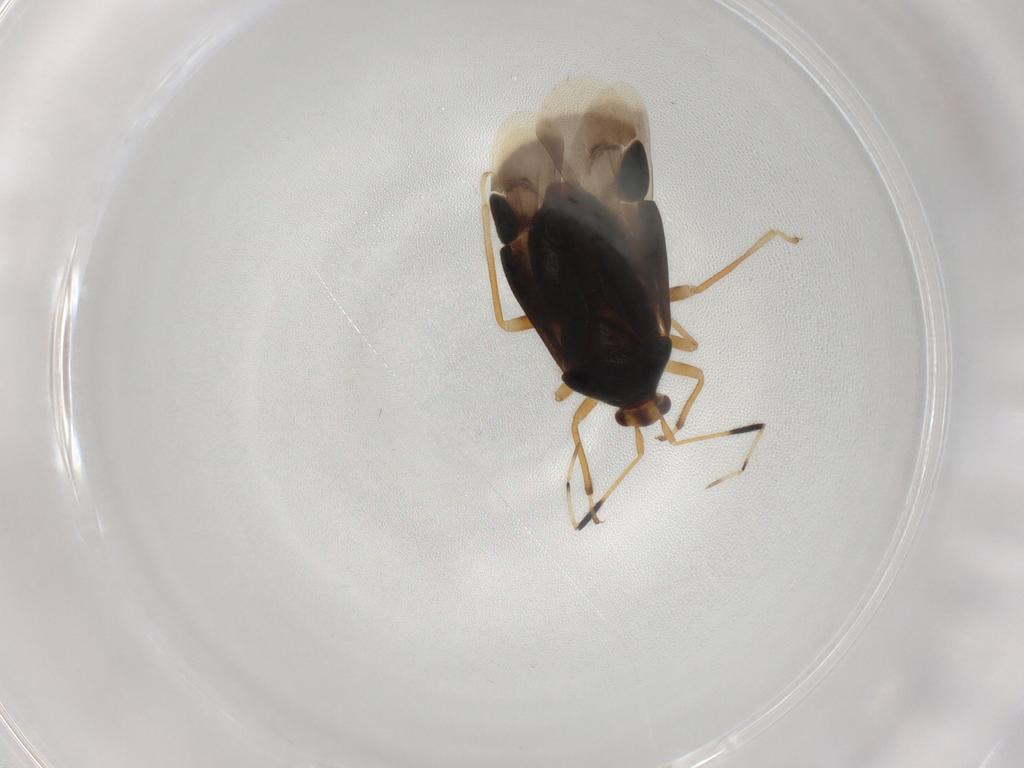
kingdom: Animalia
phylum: Arthropoda
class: Insecta
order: Hemiptera
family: Miridae
